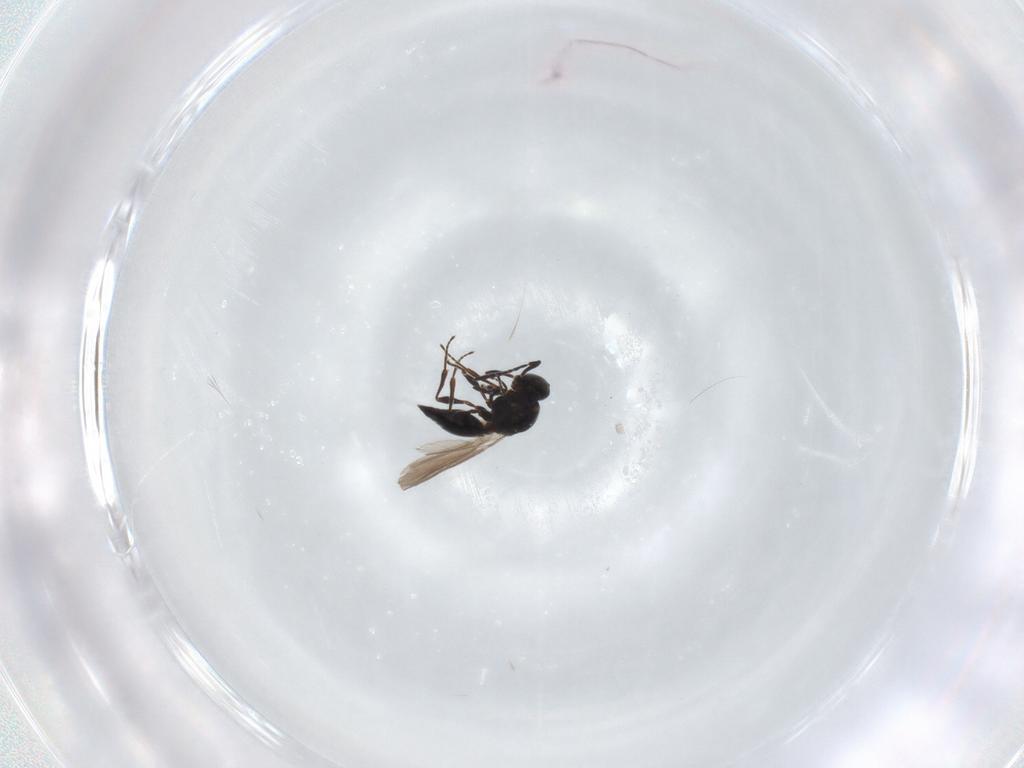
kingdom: Animalia
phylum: Arthropoda
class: Insecta
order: Hymenoptera
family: Platygastridae
